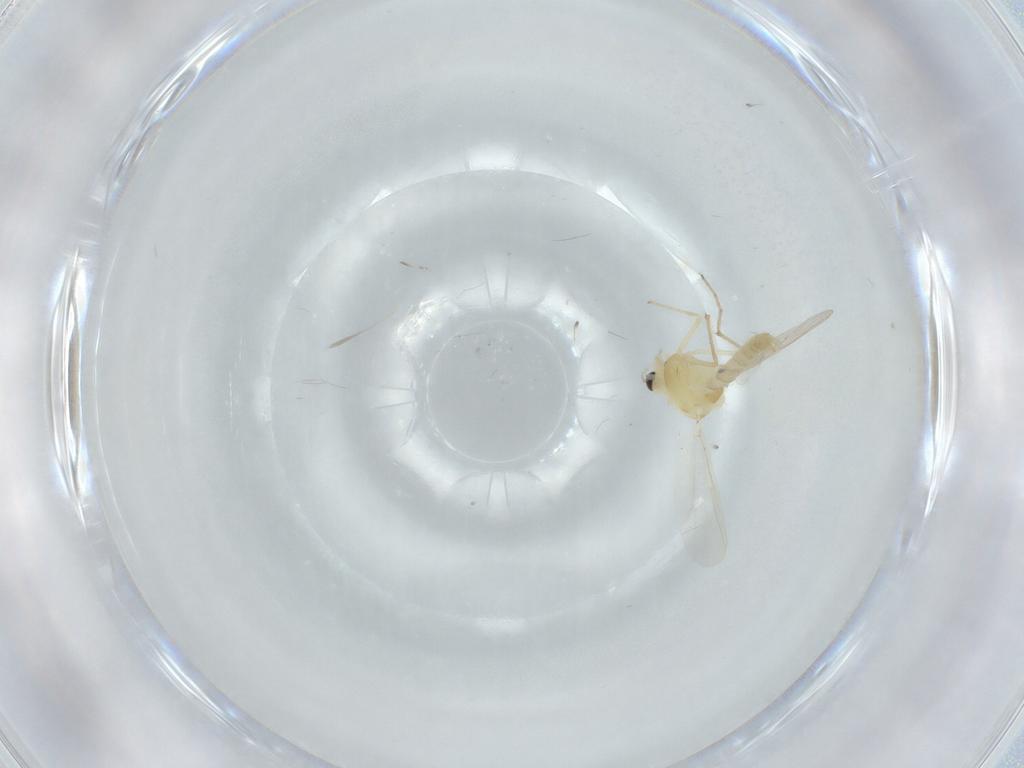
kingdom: Animalia
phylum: Arthropoda
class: Insecta
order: Diptera
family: Chironomidae
